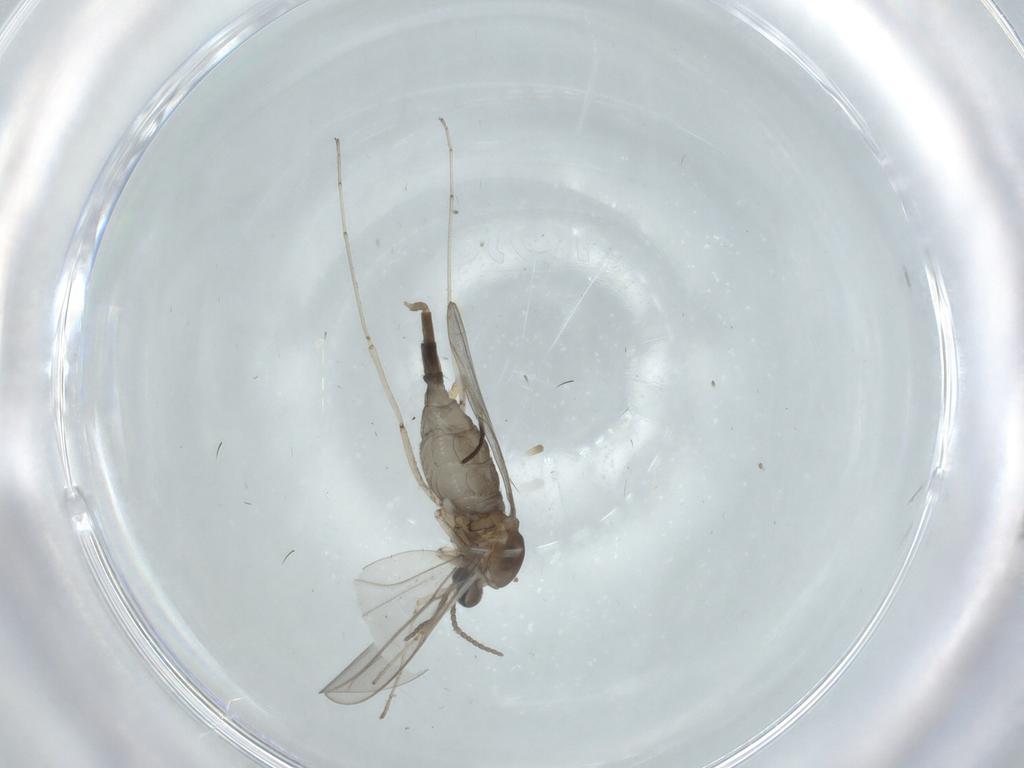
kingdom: Animalia
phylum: Arthropoda
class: Insecta
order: Diptera
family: Cecidomyiidae
